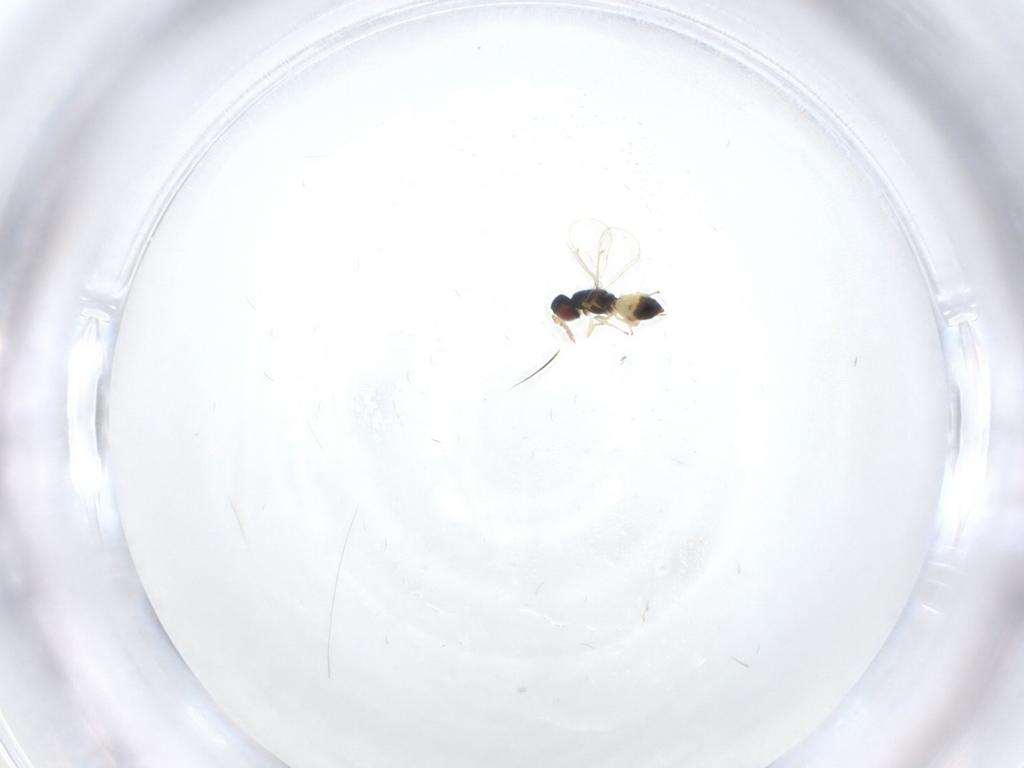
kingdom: Animalia
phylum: Arthropoda
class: Insecta
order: Hymenoptera
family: Eulophidae
